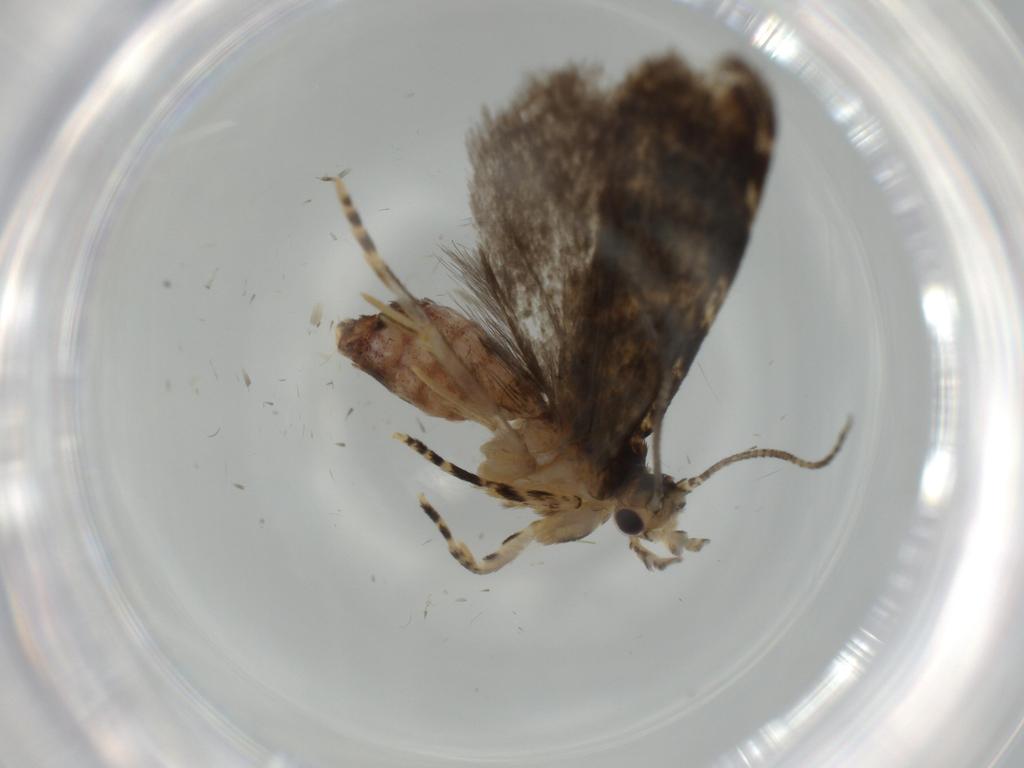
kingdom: Animalia
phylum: Arthropoda
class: Insecta
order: Lepidoptera
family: Tineidae
